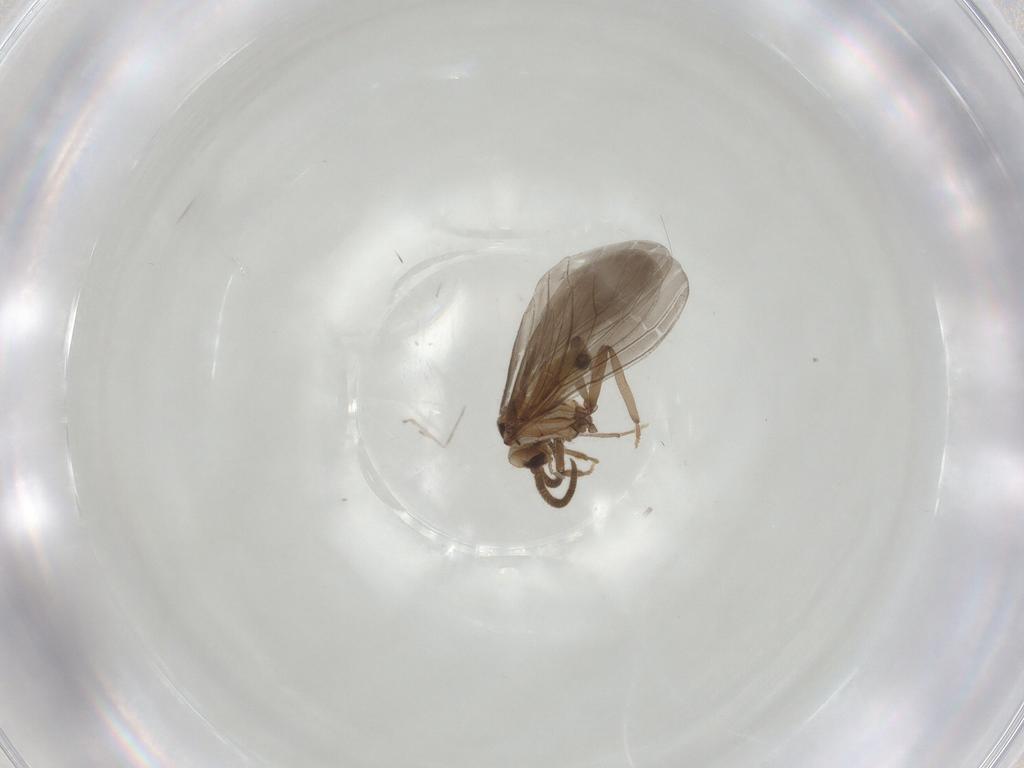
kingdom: Animalia
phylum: Arthropoda
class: Insecta
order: Neuroptera
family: Coniopterygidae
